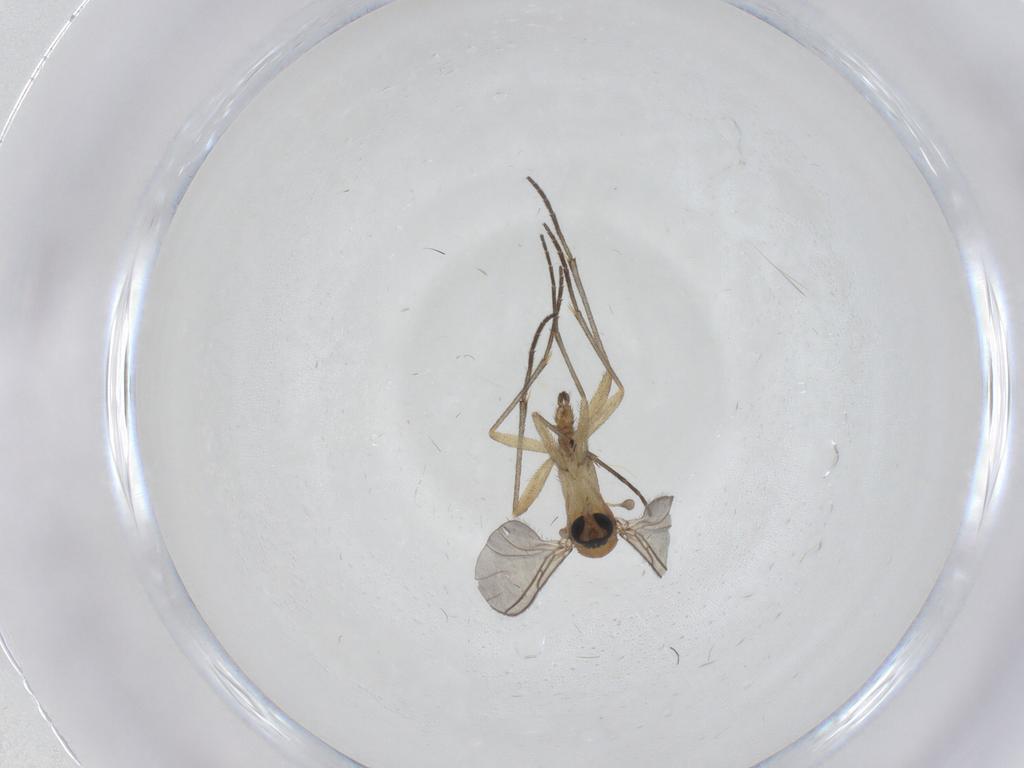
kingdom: Animalia
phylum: Arthropoda
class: Insecta
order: Diptera
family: Sciaridae
